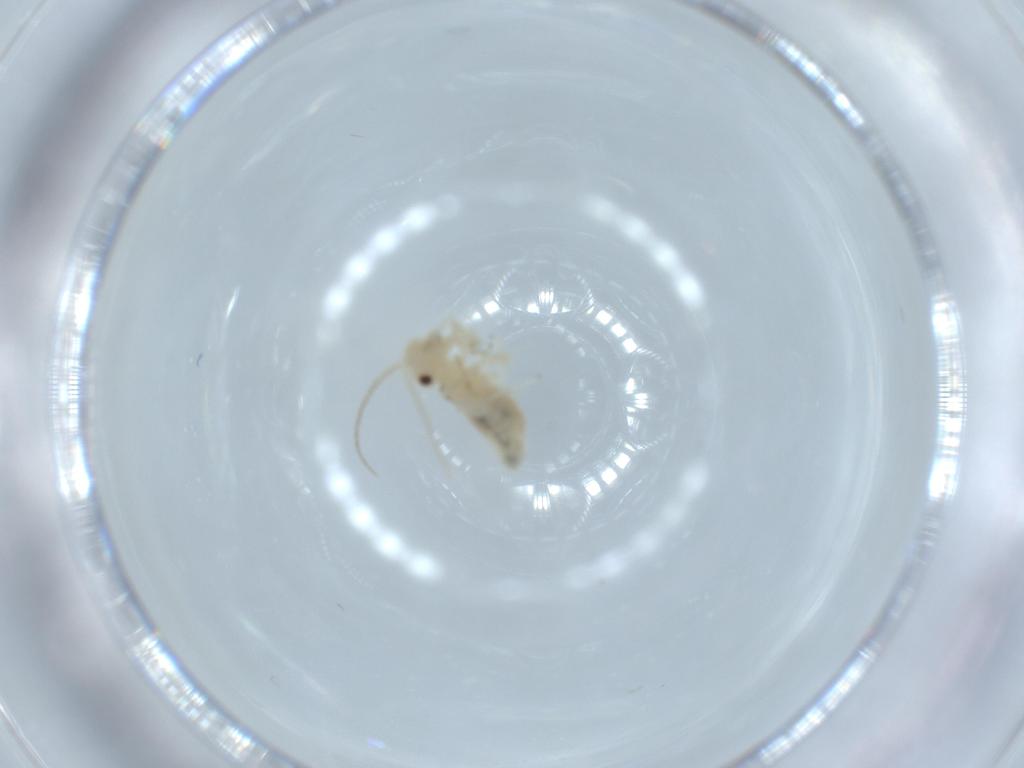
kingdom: Animalia
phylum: Arthropoda
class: Insecta
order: Psocodea
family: Caeciliusidae
